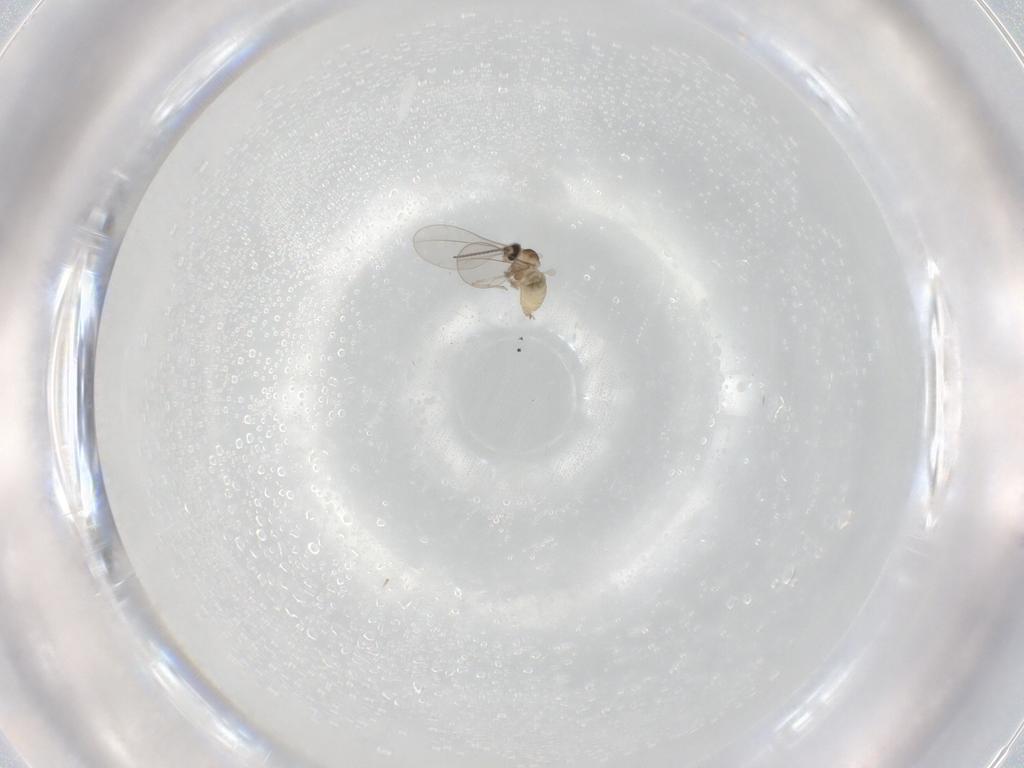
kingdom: Animalia
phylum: Arthropoda
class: Insecta
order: Diptera
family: Cecidomyiidae
